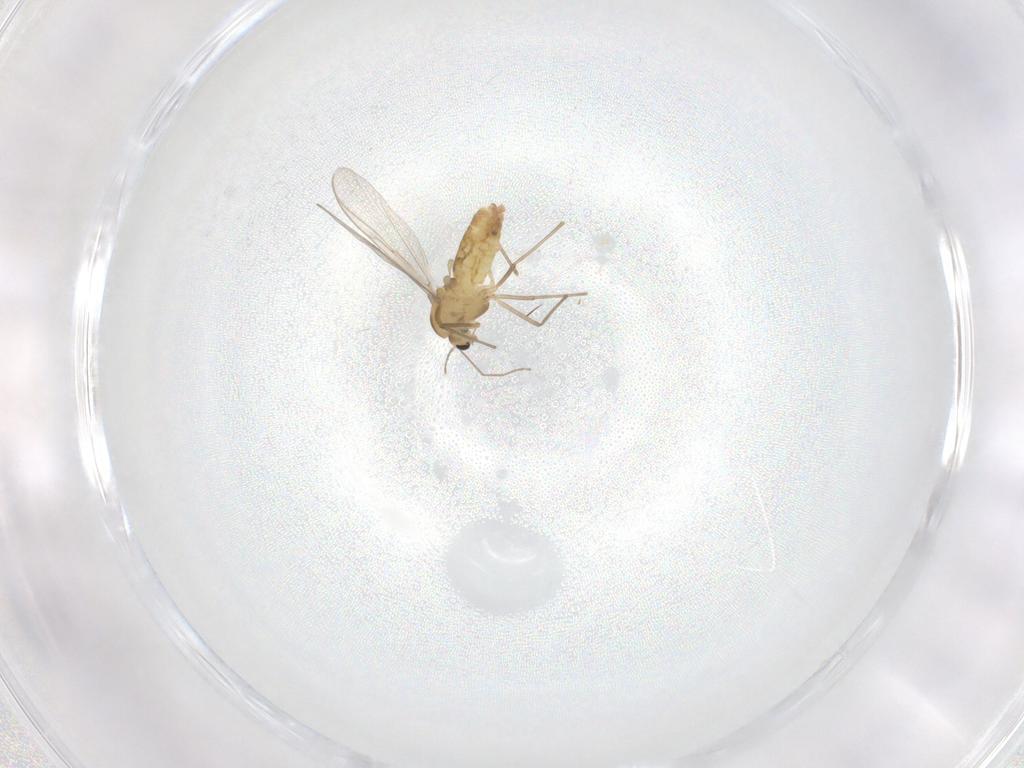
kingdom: Animalia
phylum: Arthropoda
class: Insecta
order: Diptera
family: Chironomidae
